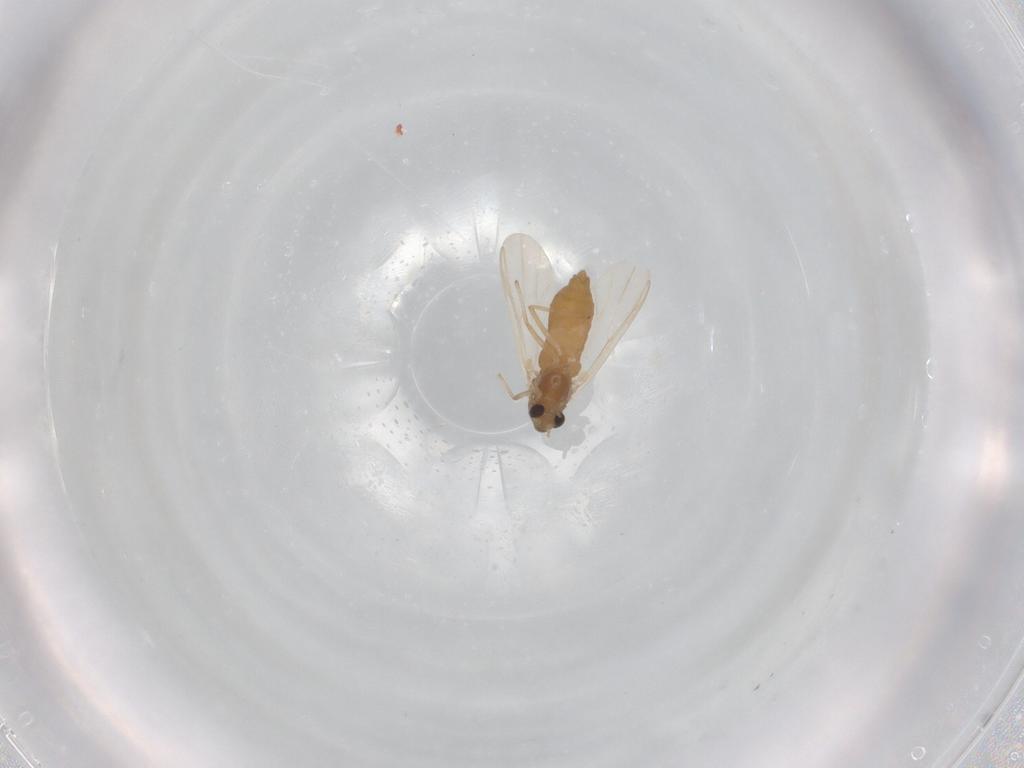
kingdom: Animalia
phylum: Arthropoda
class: Insecta
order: Diptera
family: Chironomidae
